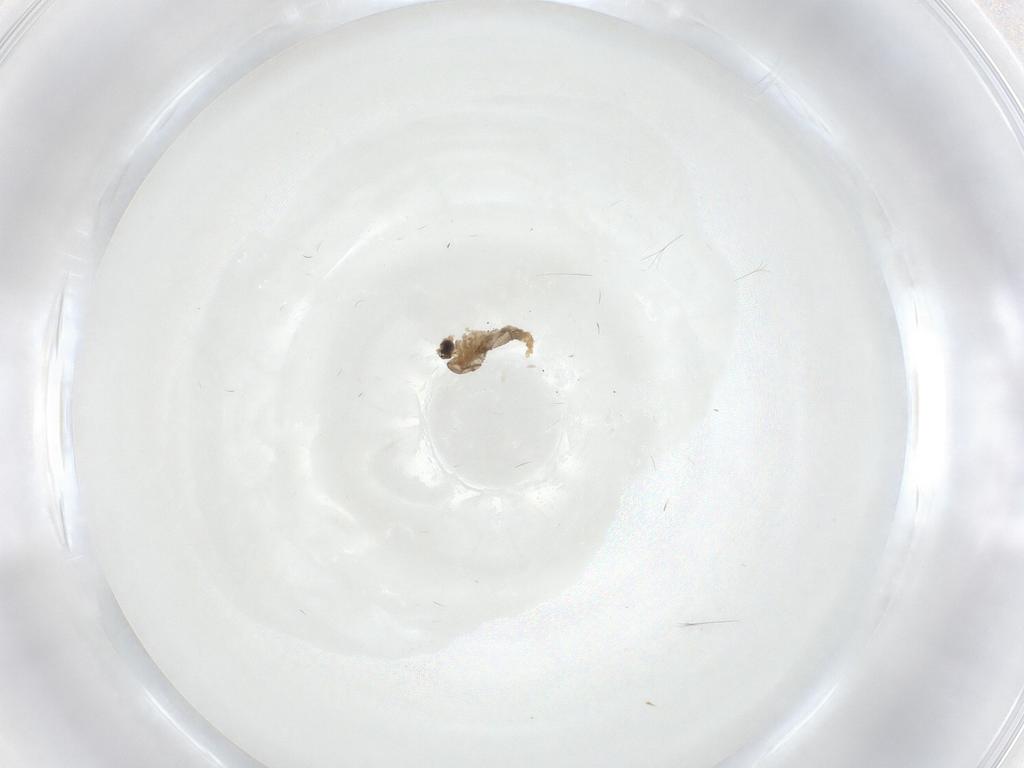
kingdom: Animalia
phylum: Arthropoda
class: Insecta
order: Diptera
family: Cecidomyiidae
